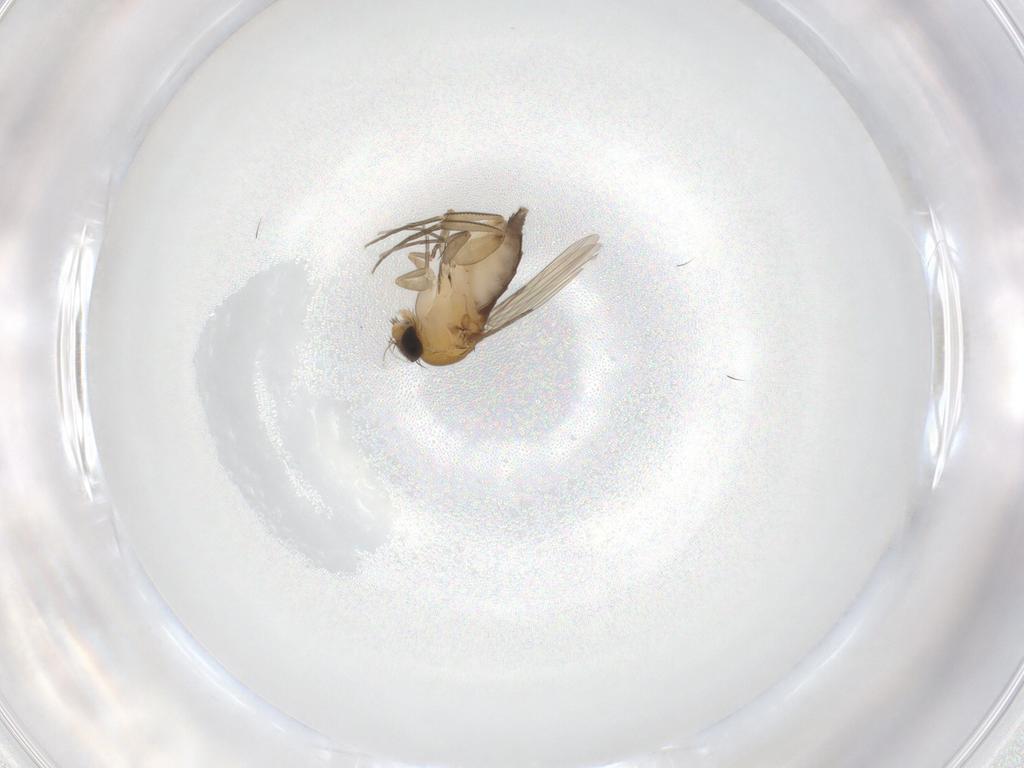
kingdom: Animalia
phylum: Arthropoda
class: Insecta
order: Diptera
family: Phoridae
